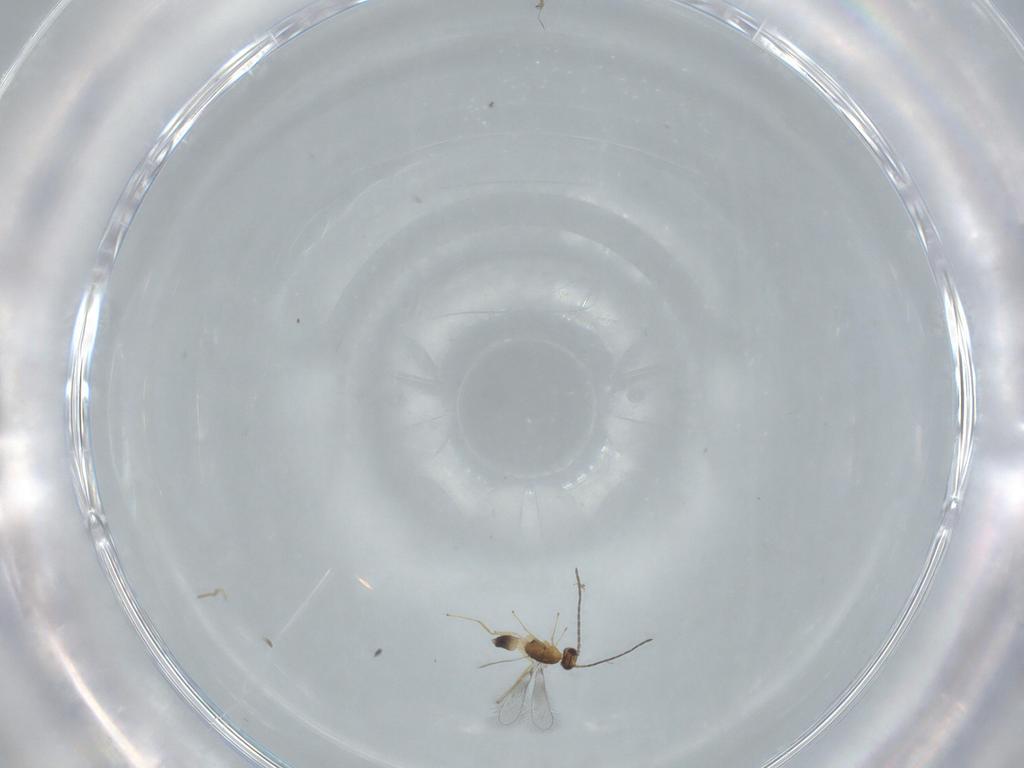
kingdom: Animalia
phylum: Arthropoda
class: Insecta
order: Hymenoptera
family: Mymaridae
